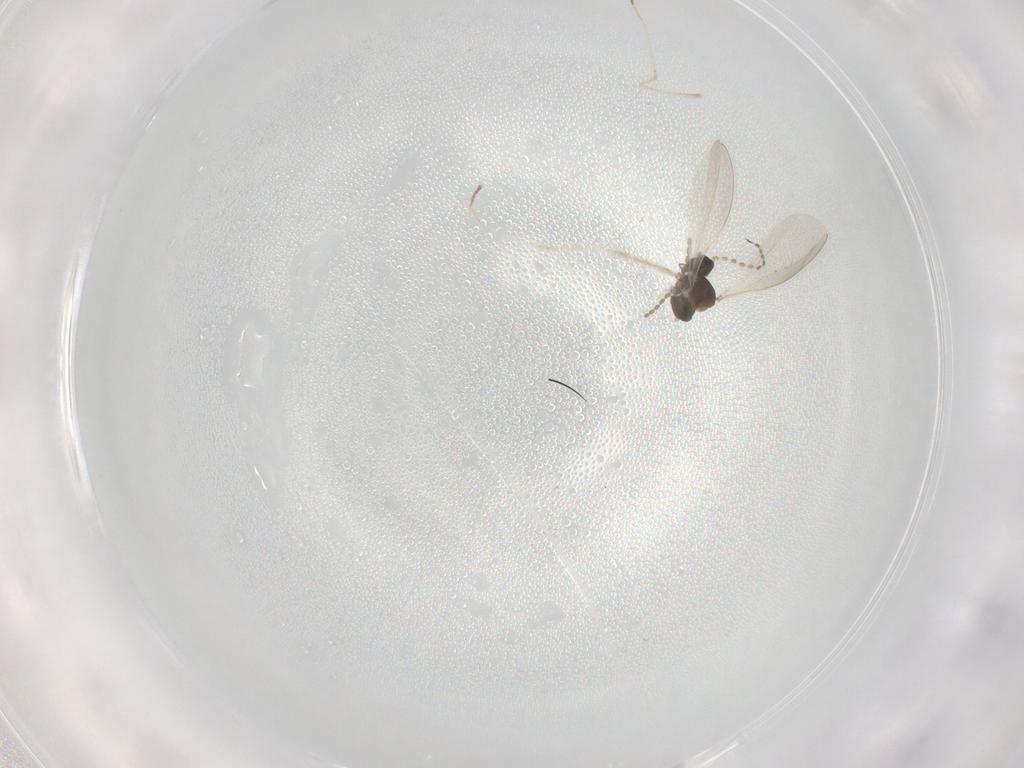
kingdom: Animalia
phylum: Arthropoda
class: Insecta
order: Diptera
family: Cecidomyiidae
